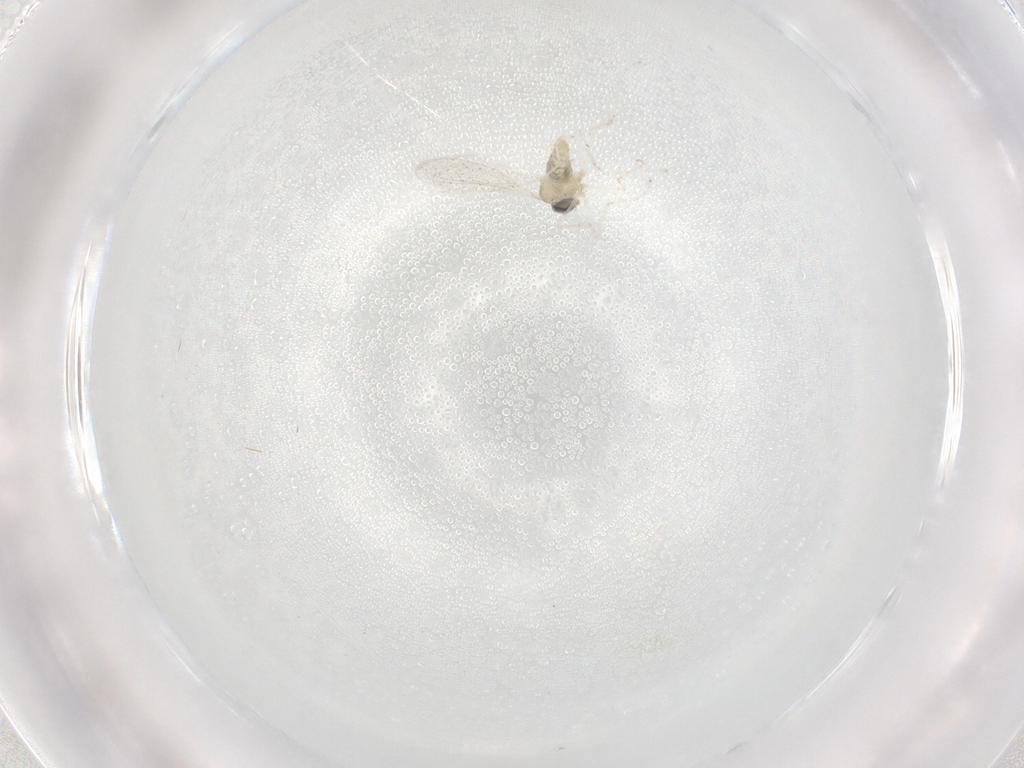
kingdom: Animalia
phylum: Arthropoda
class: Insecta
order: Diptera
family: Cecidomyiidae
